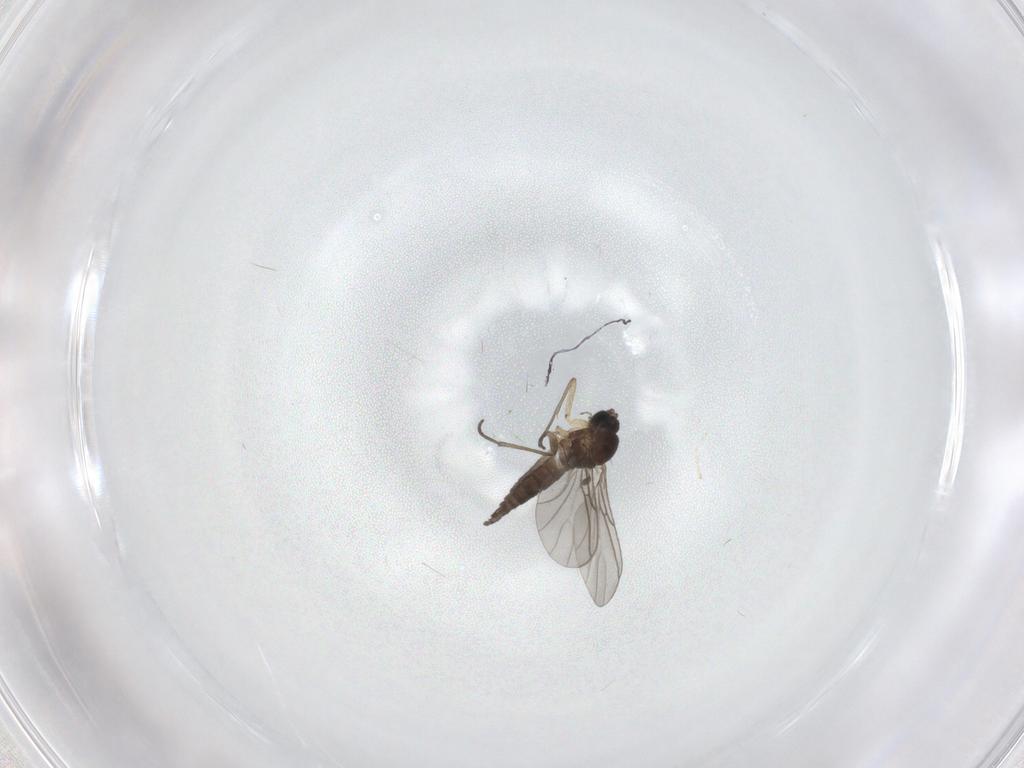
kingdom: Animalia
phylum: Arthropoda
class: Insecta
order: Diptera
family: Sciaridae
